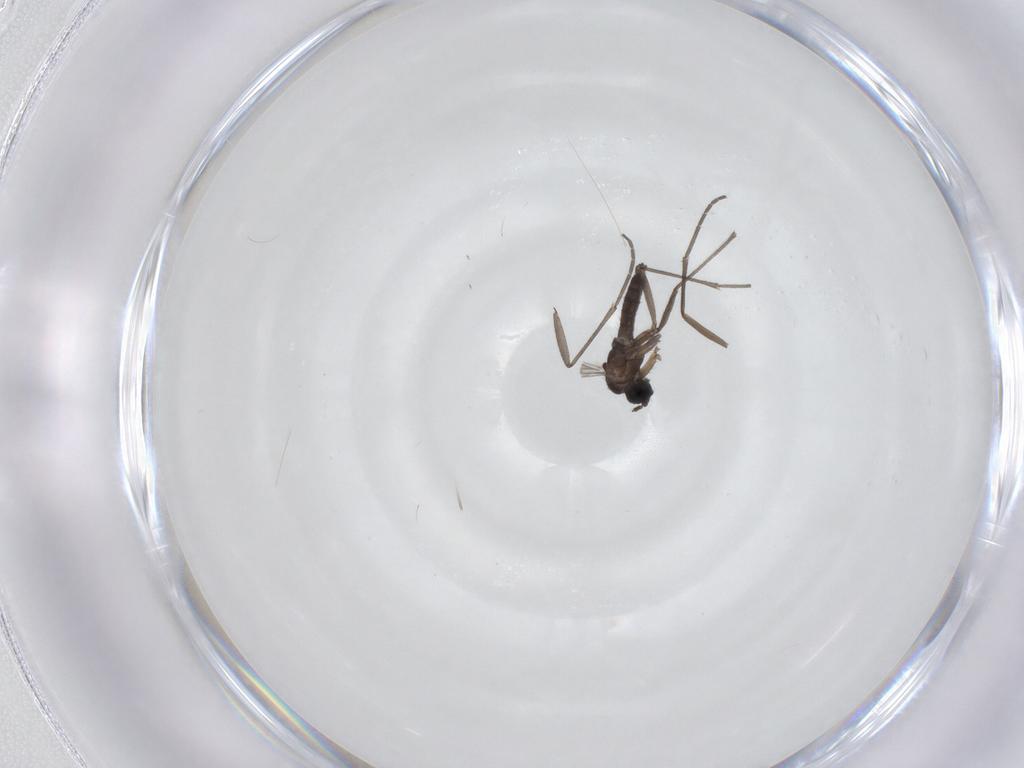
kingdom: Animalia
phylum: Arthropoda
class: Insecta
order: Diptera
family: Sciaridae
